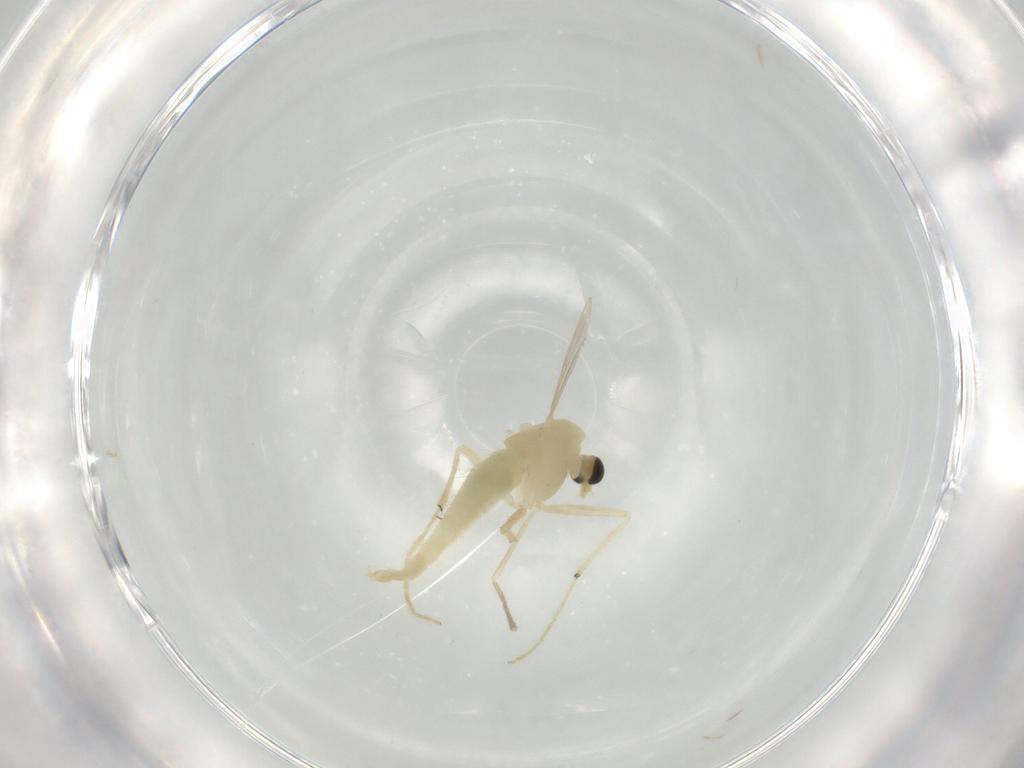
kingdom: Animalia
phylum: Arthropoda
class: Insecta
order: Diptera
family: Chironomidae
